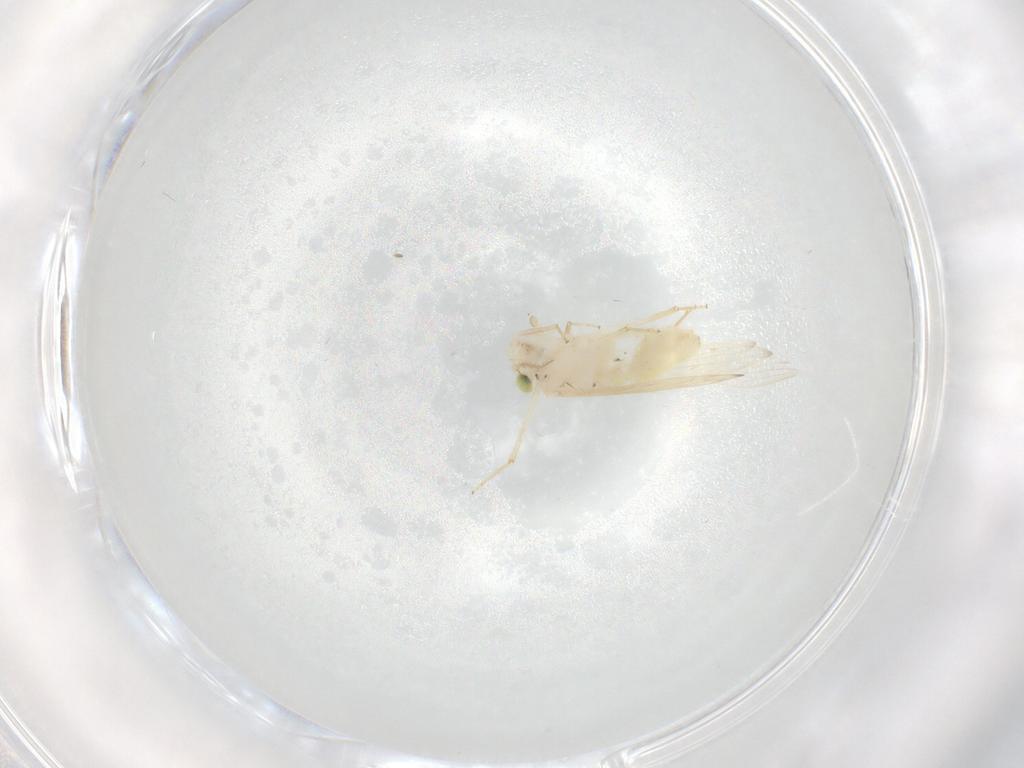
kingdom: Animalia
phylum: Arthropoda
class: Insecta
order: Psocodea
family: Lepidopsocidae
